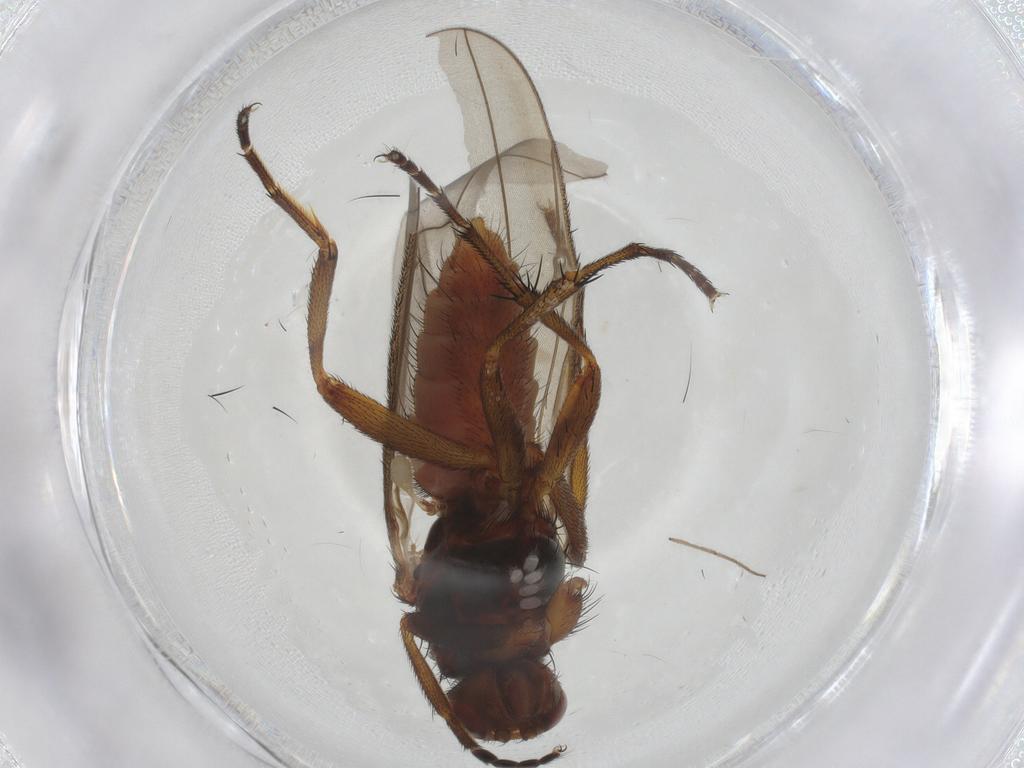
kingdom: Animalia
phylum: Arthropoda
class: Insecta
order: Diptera
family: Heleomyzidae
